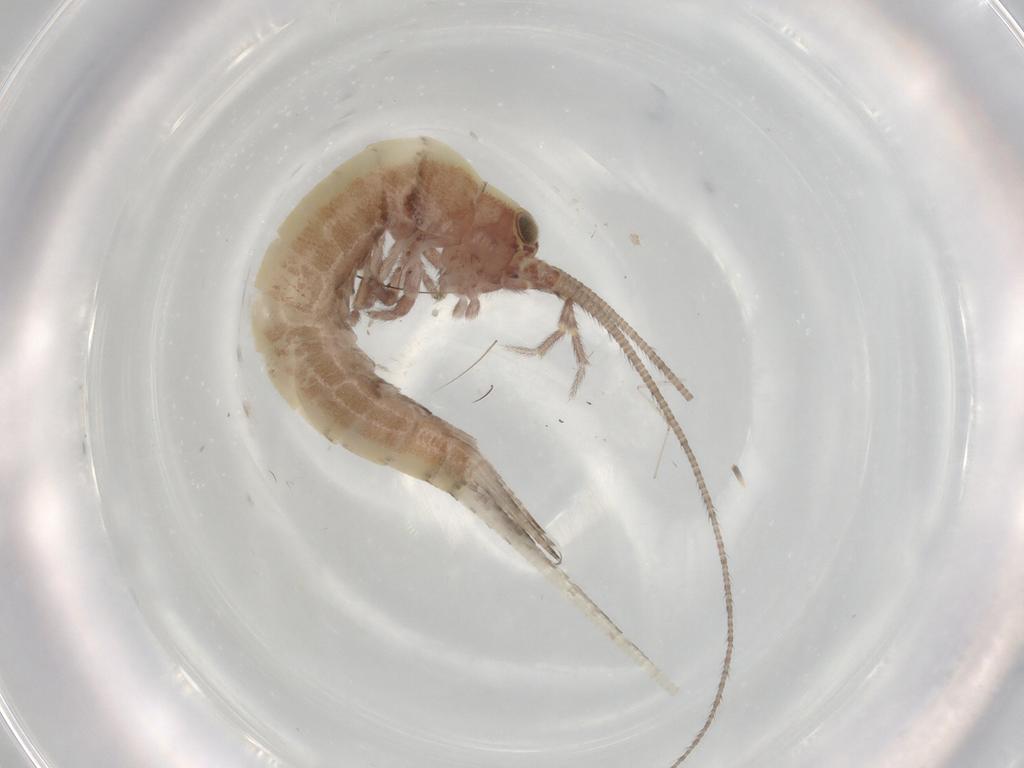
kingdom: Animalia
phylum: Arthropoda
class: Insecta
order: Archaeognatha
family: Machilidae
